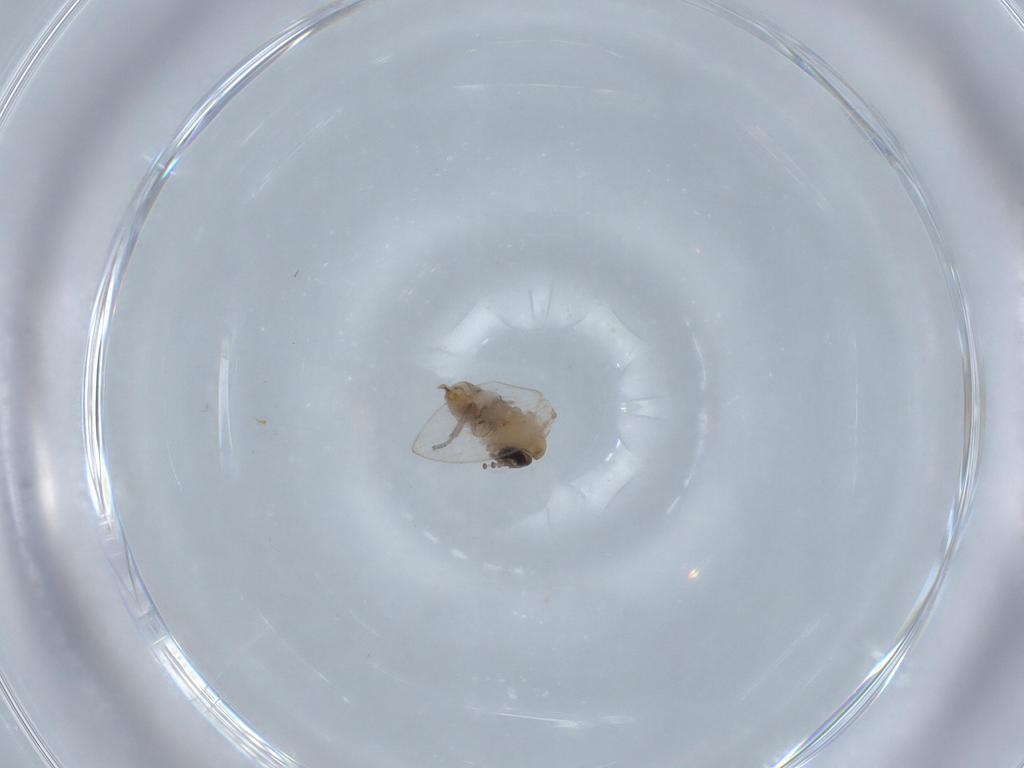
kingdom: Animalia
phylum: Arthropoda
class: Insecta
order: Diptera
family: Psychodidae
